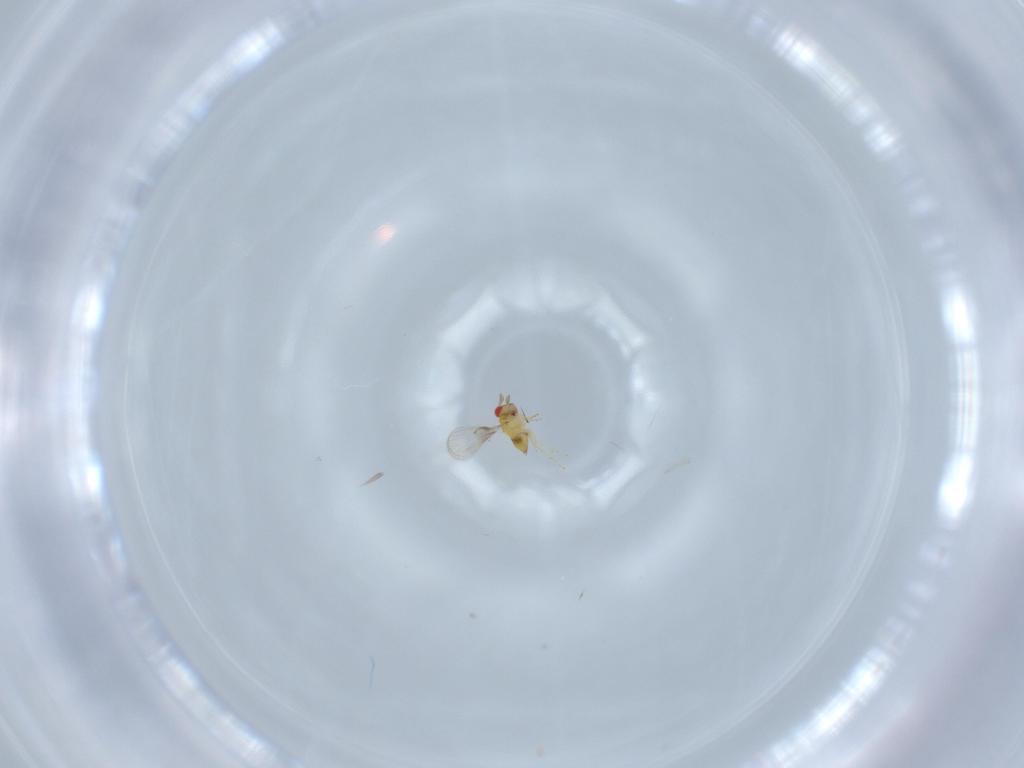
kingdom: Animalia
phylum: Arthropoda
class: Insecta
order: Hymenoptera
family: Trichogrammatidae
